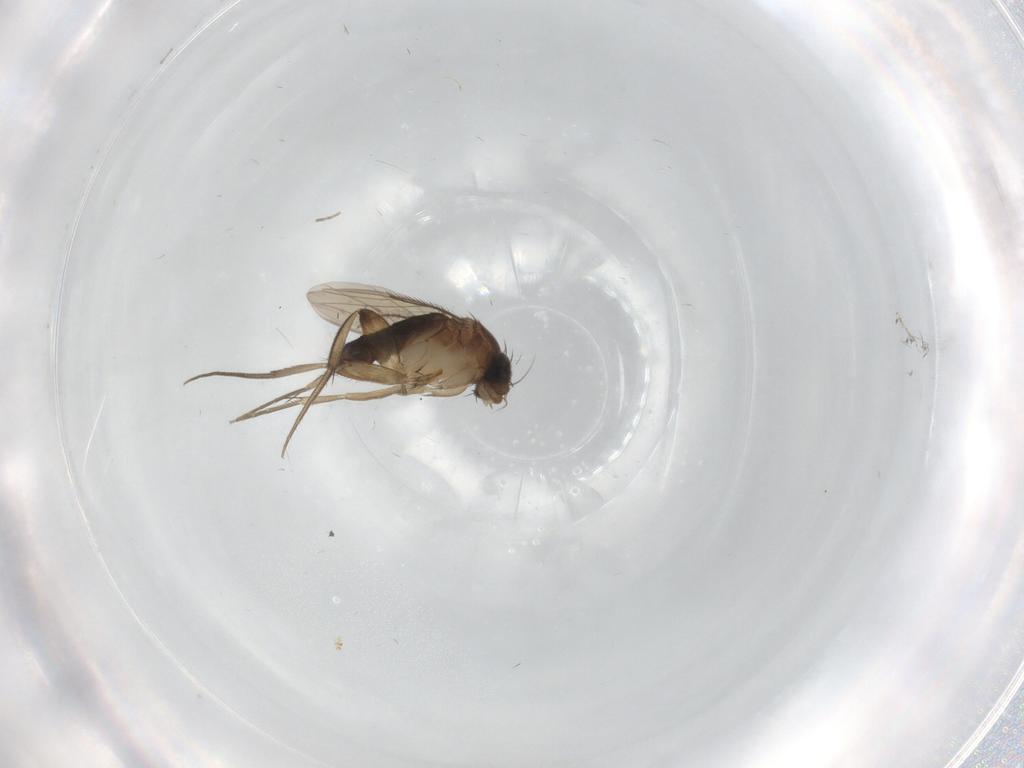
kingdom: Animalia
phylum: Arthropoda
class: Insecta
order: Diptera
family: Phoridae
